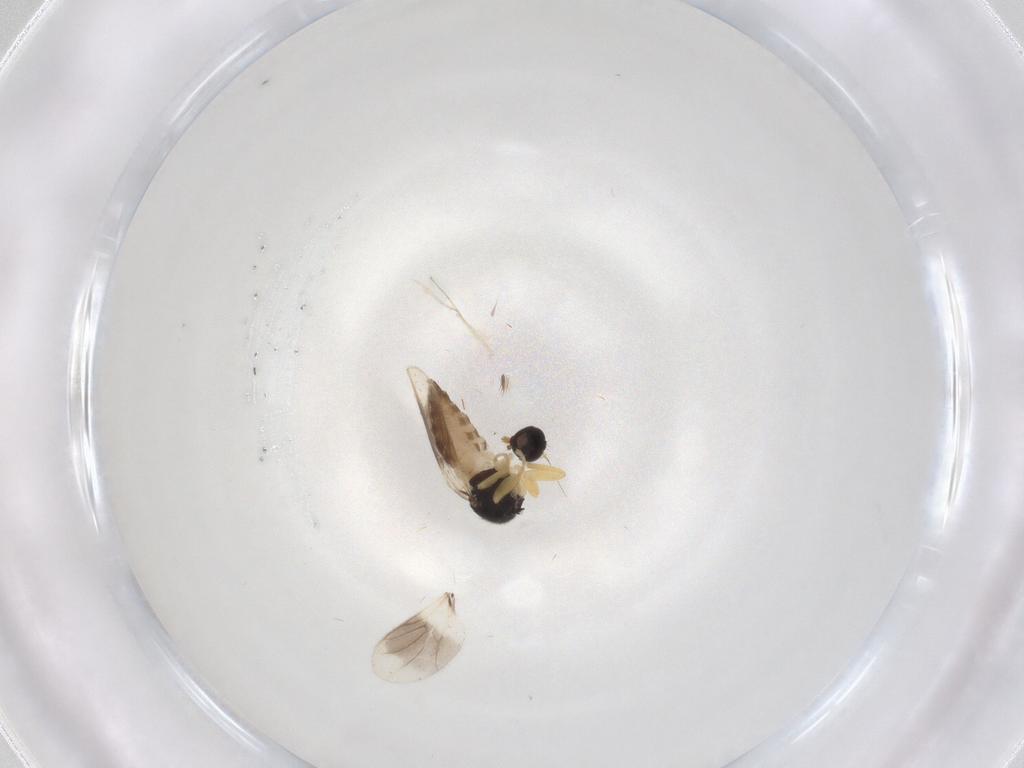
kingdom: Animalia
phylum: Arthropoda
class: Insecta
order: Diptera
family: Hybotidae
